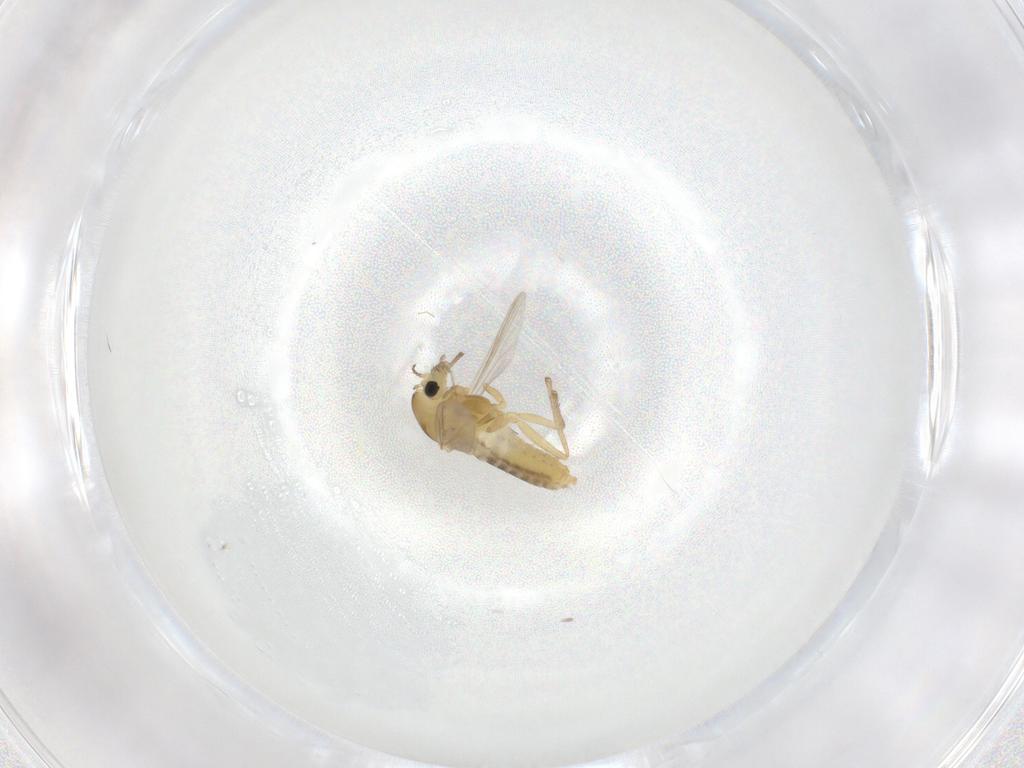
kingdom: Animalia
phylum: Arthropoda
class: Insecta
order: Diptera
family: Chironomidae
